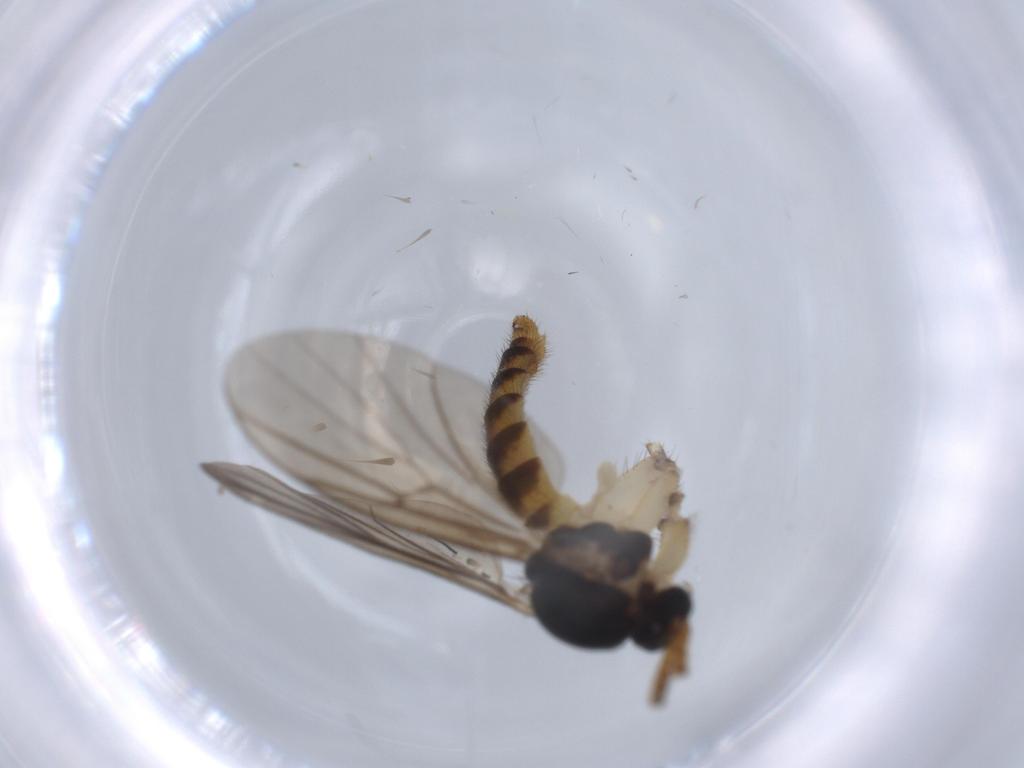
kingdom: Animalia
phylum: Arthropoda
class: Insecta
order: Diptera
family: Sciaridae
